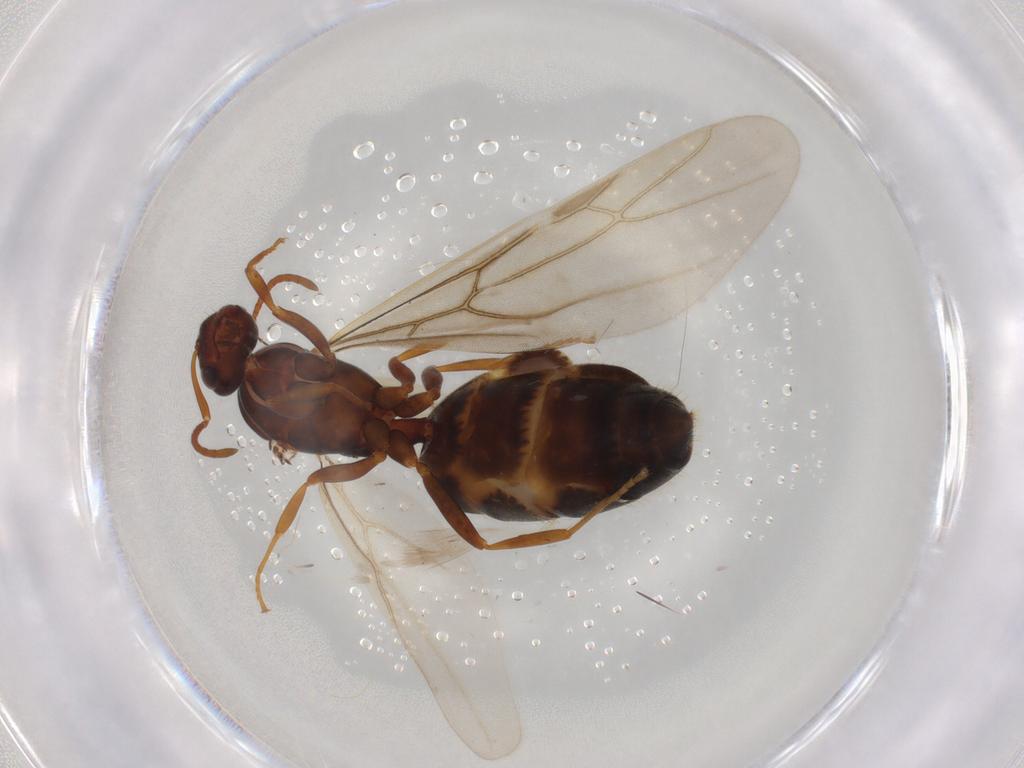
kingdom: Animalia
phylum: Arthropoda
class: Insecta
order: Hymenoptera
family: Formicidae
